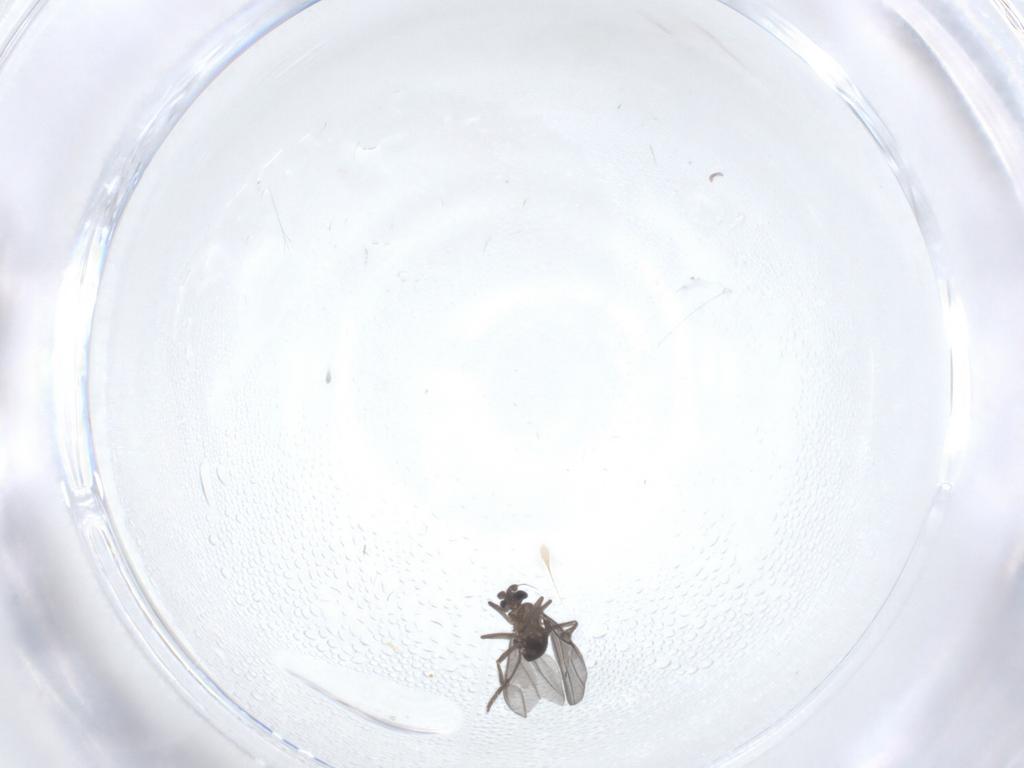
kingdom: Animalia
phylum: Arthropoda
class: Insecta
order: Diptera
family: Phoridae
